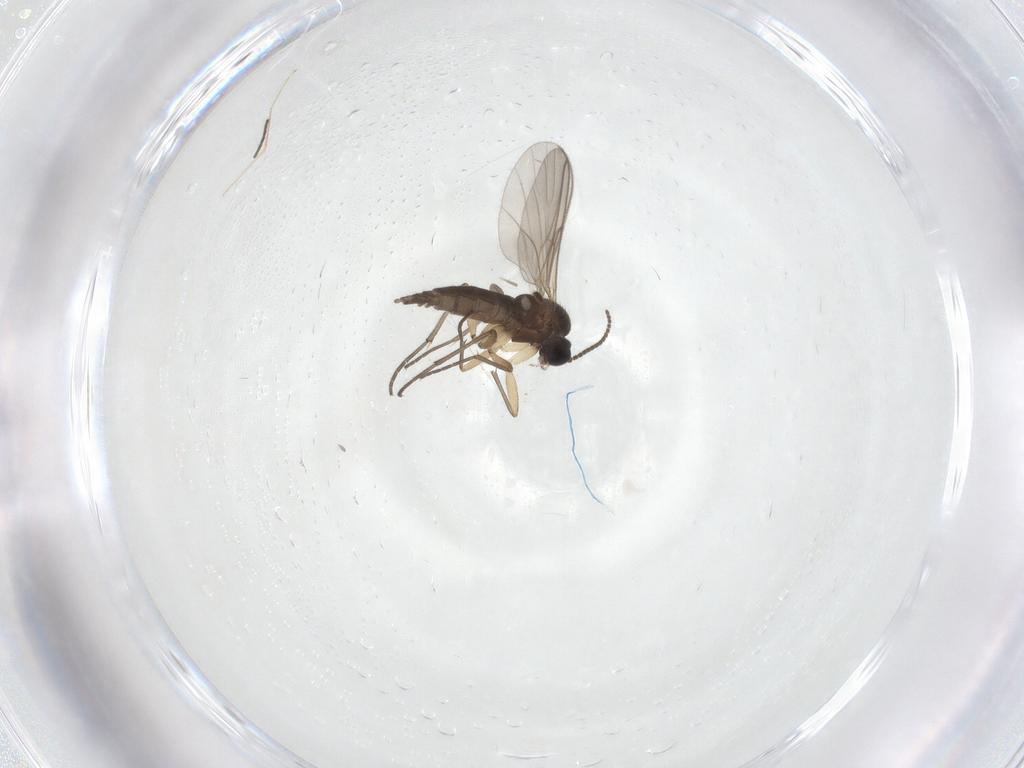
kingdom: Animalia
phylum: Arthropoda
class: Insecta
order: Diptera
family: Sciaridae
